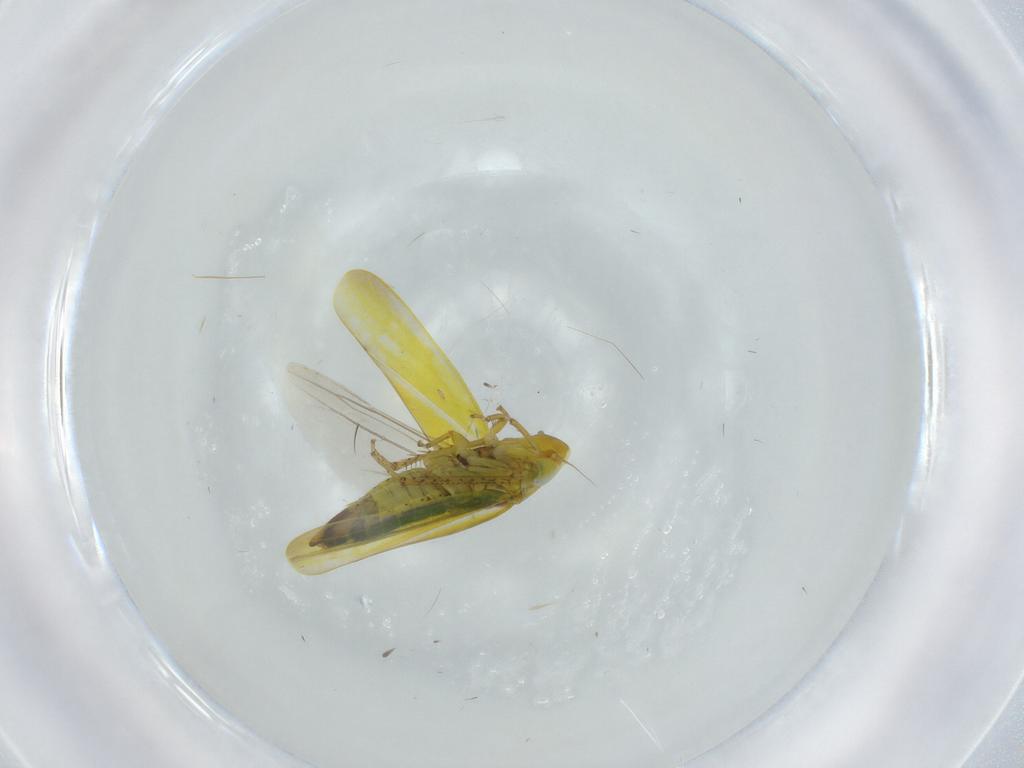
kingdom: Animalia
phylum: Arthropoda
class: Insecta
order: Hemiptera
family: Cicadellidae
